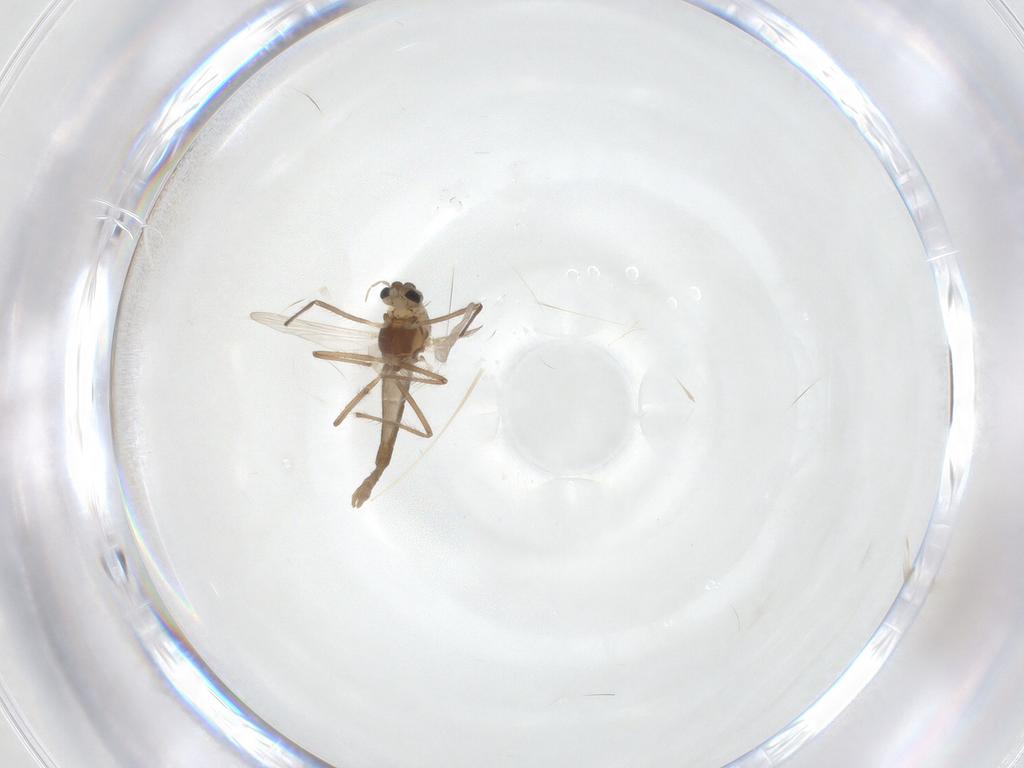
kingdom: Animalia
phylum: Arthropoda
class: Insecta
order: Diptera
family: Chironomidae
